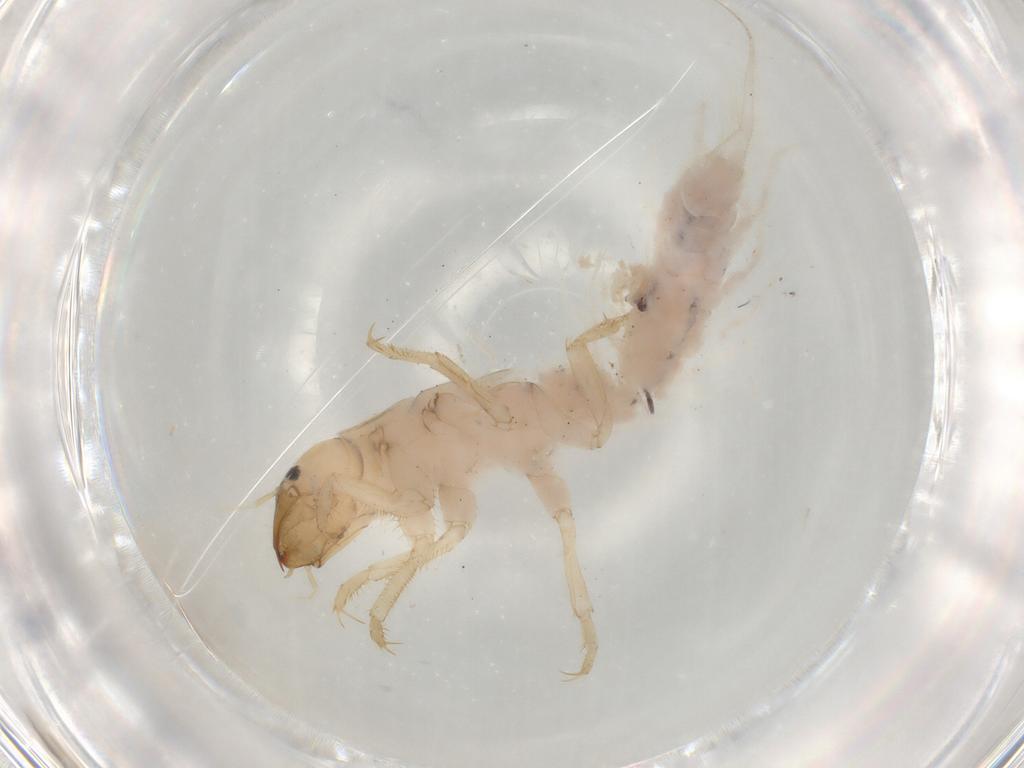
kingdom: Animalia
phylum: Arthropoda
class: Insecta
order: Megaloptera
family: Sialidae
